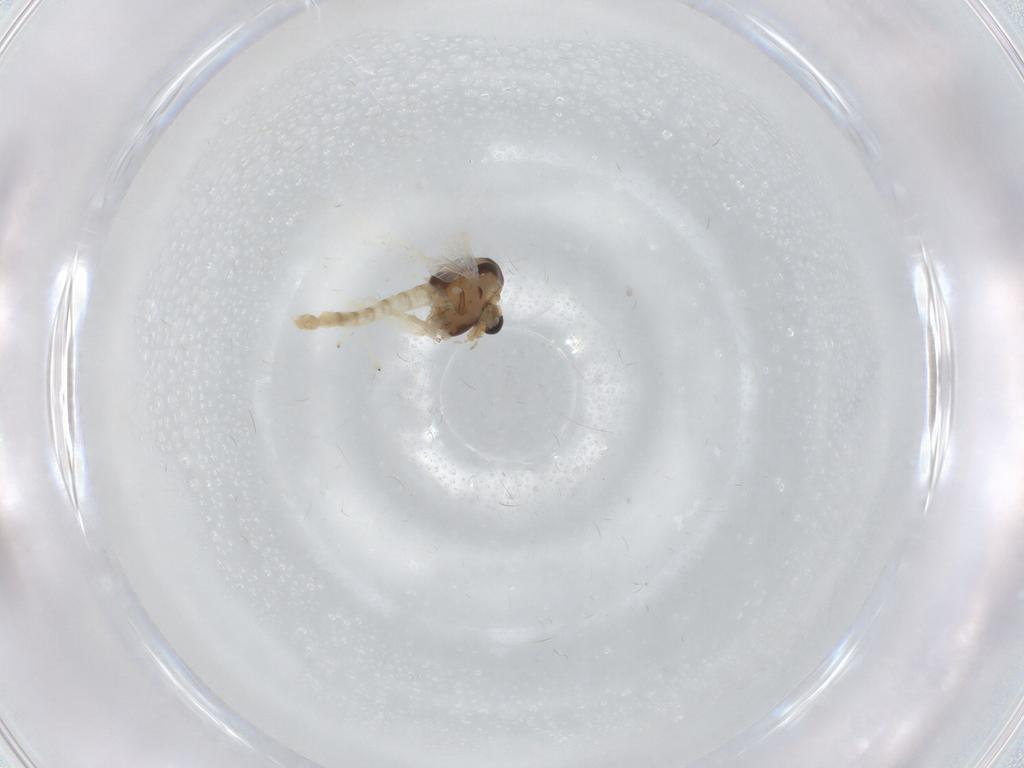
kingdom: Animalia
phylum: Arthropoda
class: Insecta
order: Diptera
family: Chironomidae
